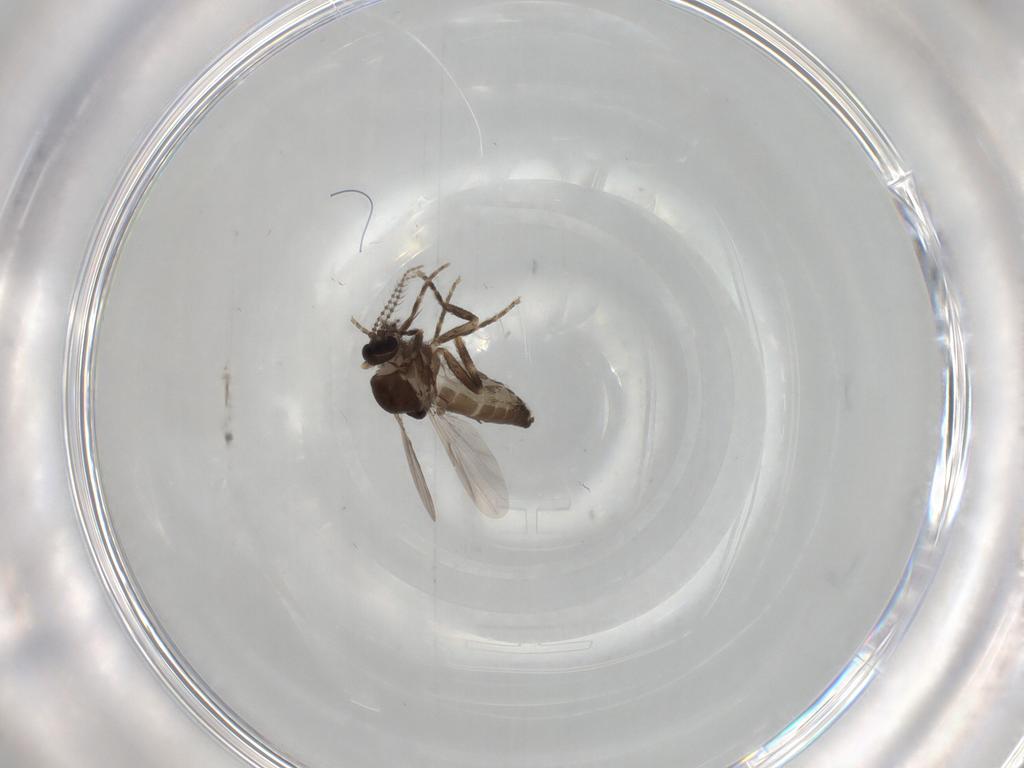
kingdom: Animalia
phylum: Arthropoda
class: Insecta
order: Diptera
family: Ceratopogonidae
